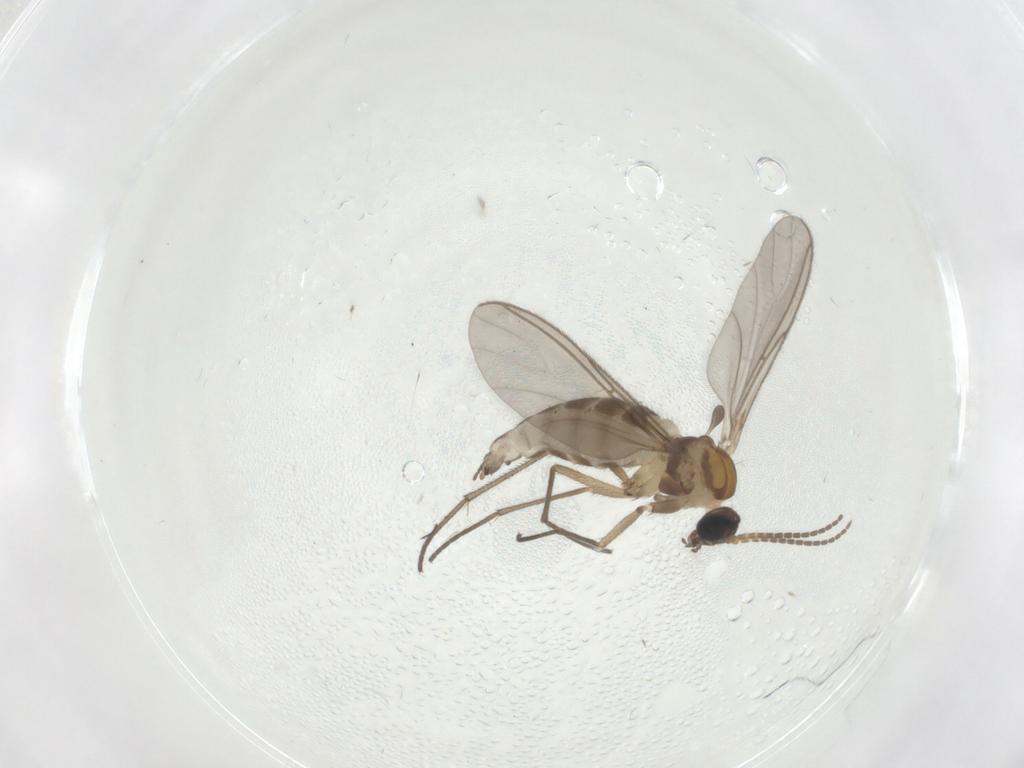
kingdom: Animalia
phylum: Arthropoda
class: Insecta
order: Diptera
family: Sciaridae
